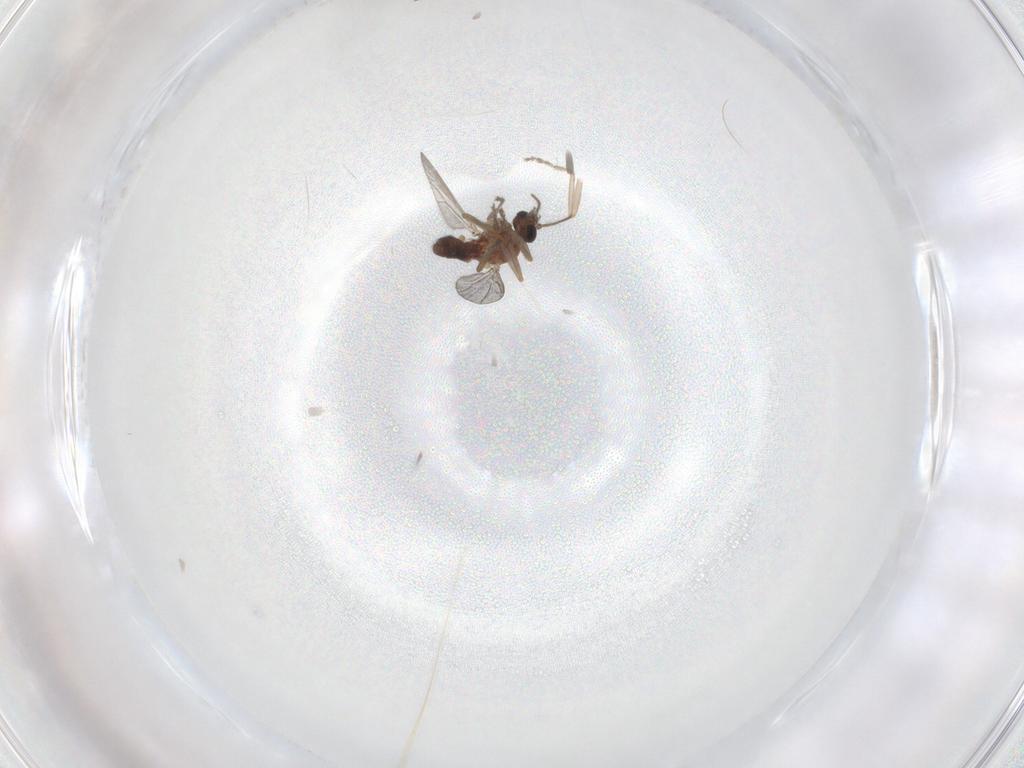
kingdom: Animalia
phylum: Arthropoda
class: Insecta
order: Diptera
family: Ceratopogonidae
